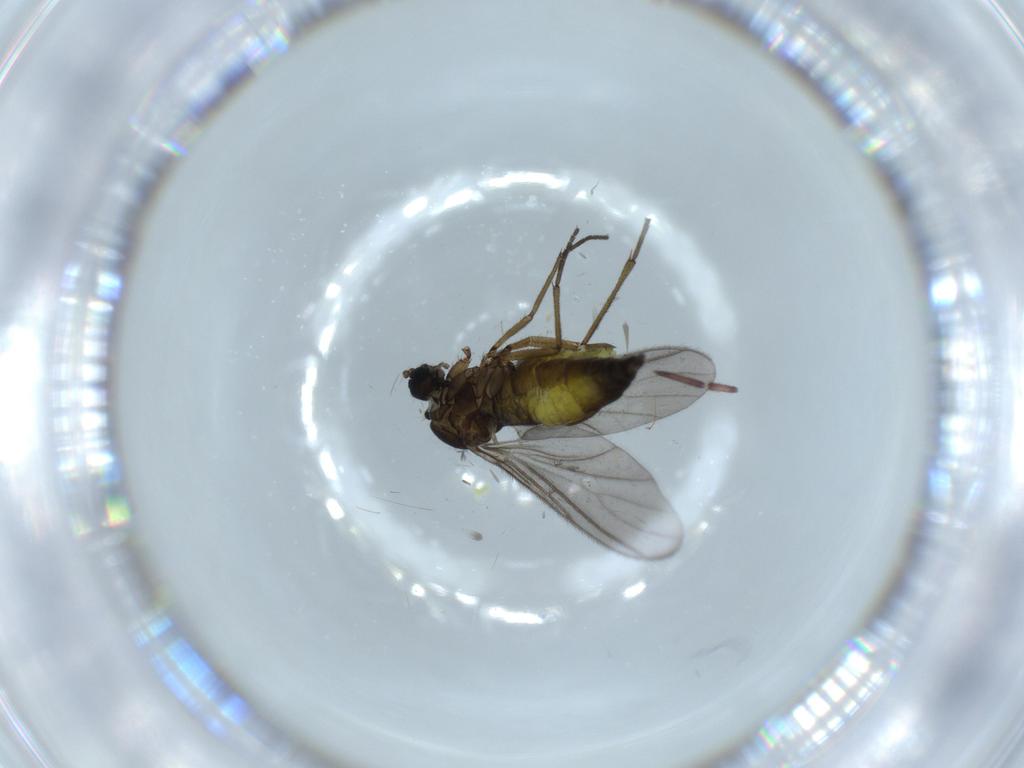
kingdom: Animalia
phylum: Arthropoda
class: Insecta
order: Diptera
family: Sciaridae
